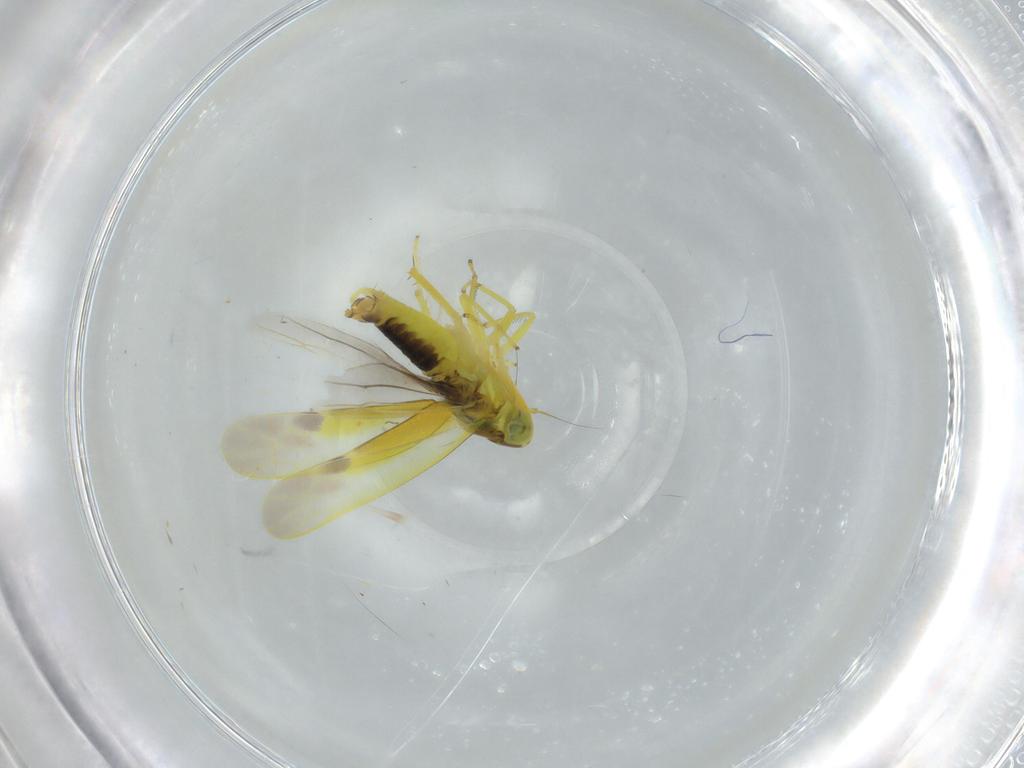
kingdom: Animalia
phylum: Arthropoda
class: Insecta
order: Hemiptera
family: Cicadellidae
